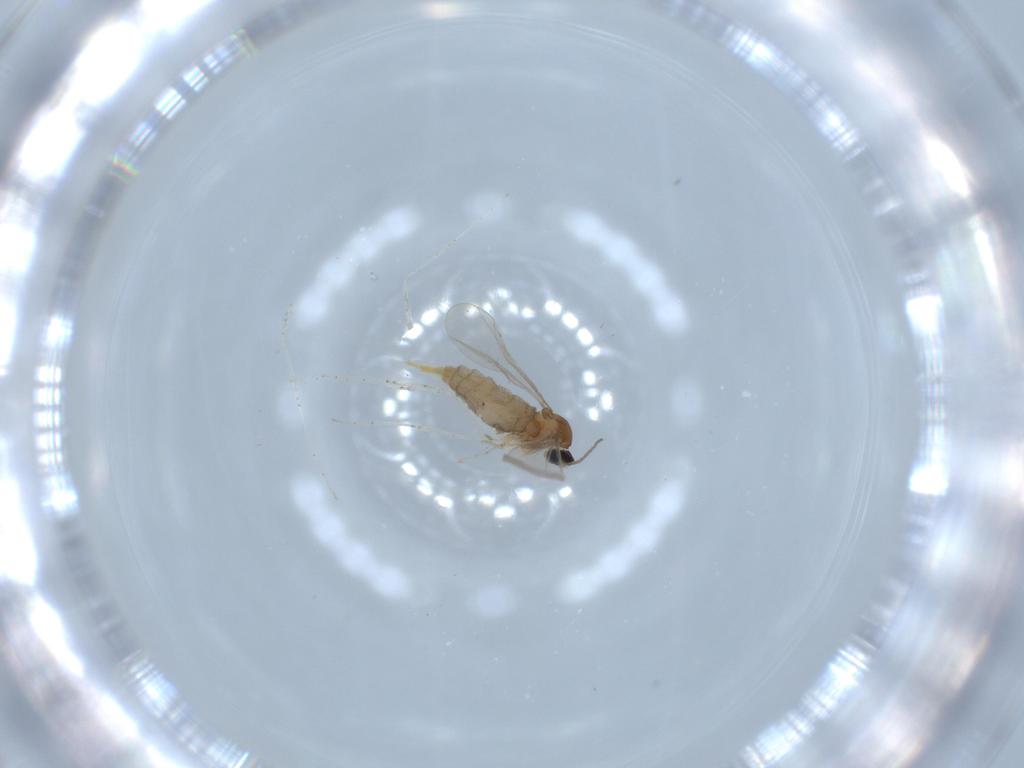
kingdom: Animalia
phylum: Arthropoda
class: Insecta
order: Diptera
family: Cecidomyiidae
